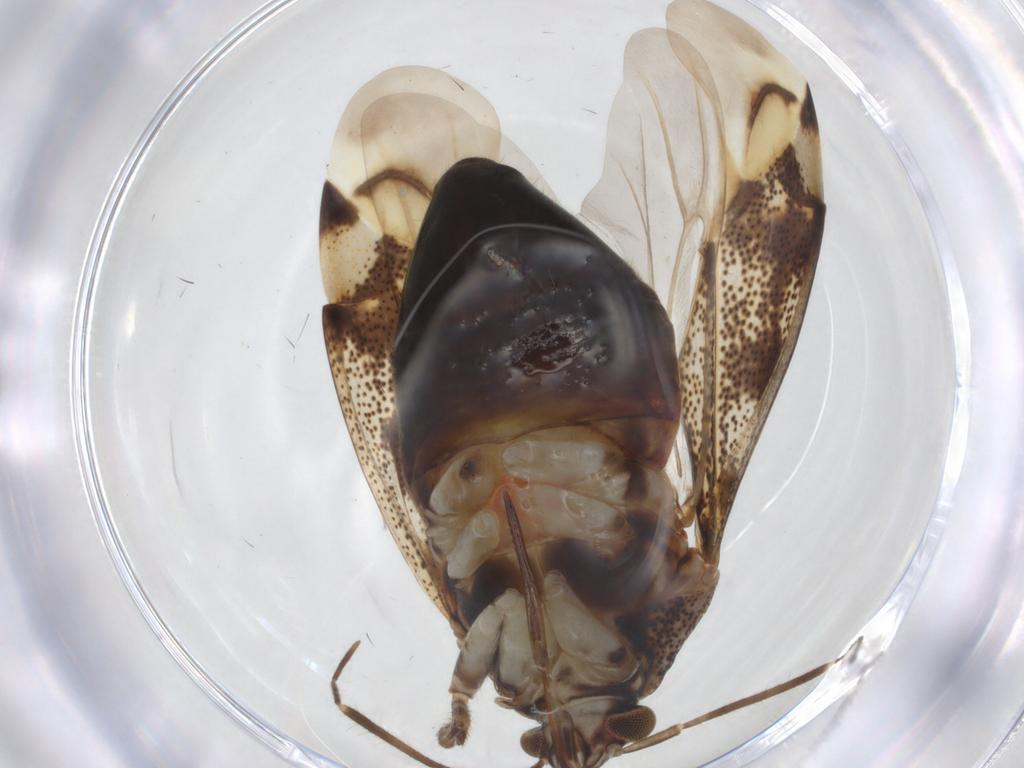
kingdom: Animalia
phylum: Arthropoda
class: Insecta
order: Hemiptera
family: Miridae
